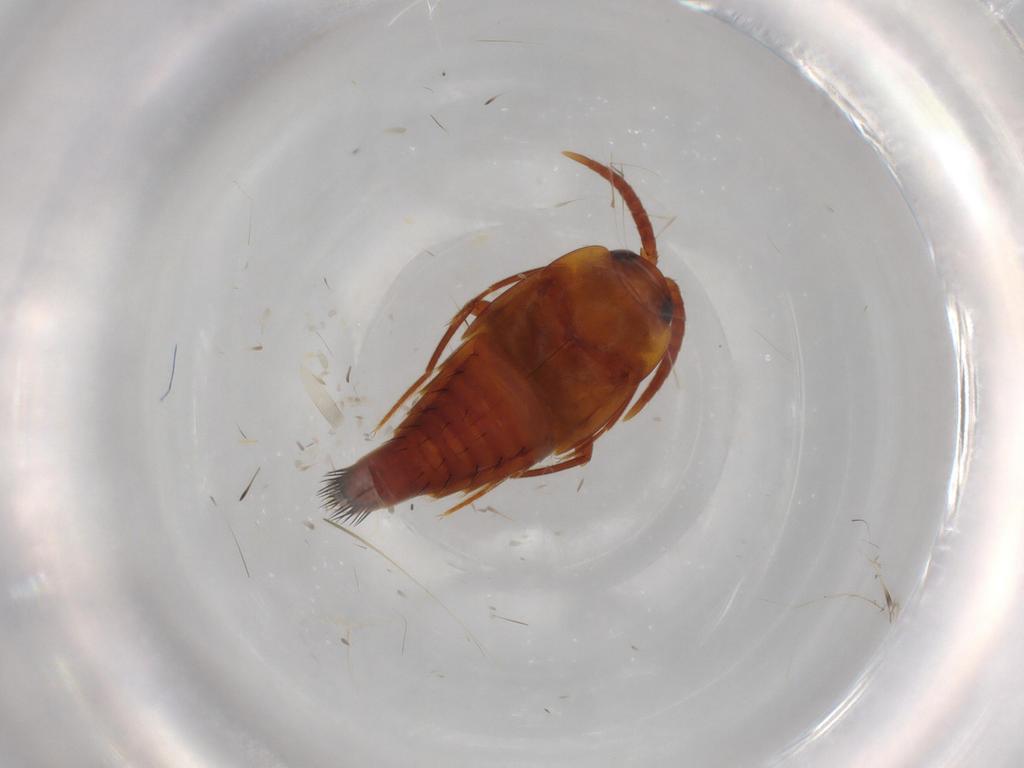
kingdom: Animalia
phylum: Arthropoda
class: Insecta
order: Coleoptera
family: Staphylinidae
